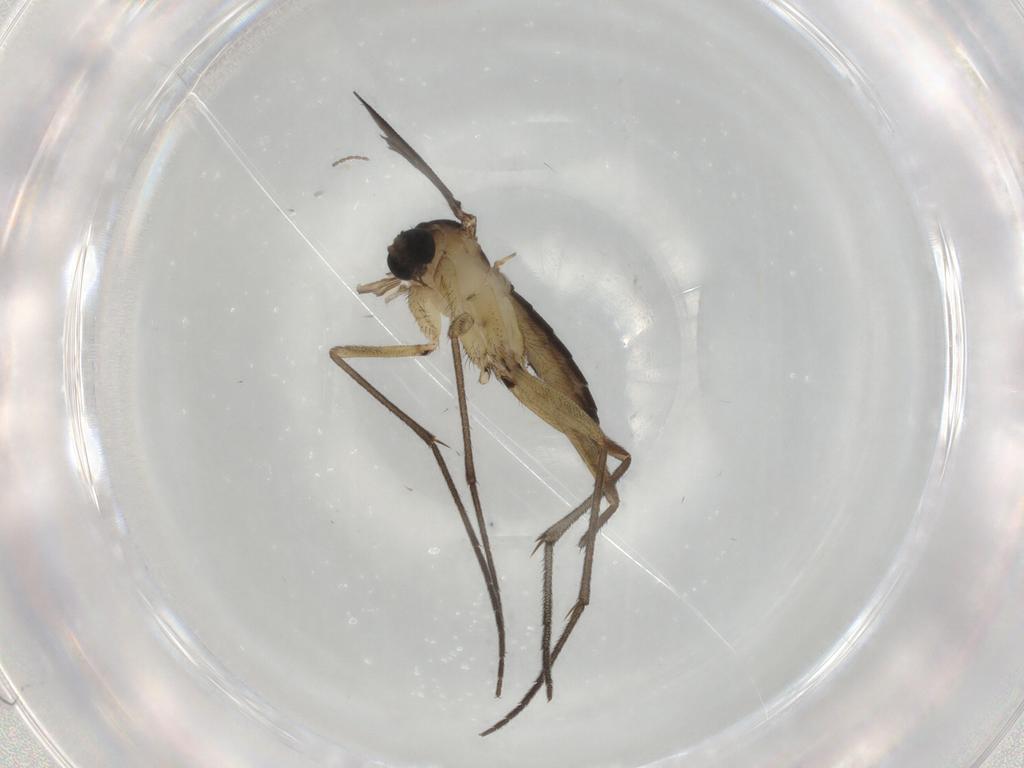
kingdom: Animalia
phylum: Arthropoda
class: Insecta
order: Diptera
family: Sciaridae
